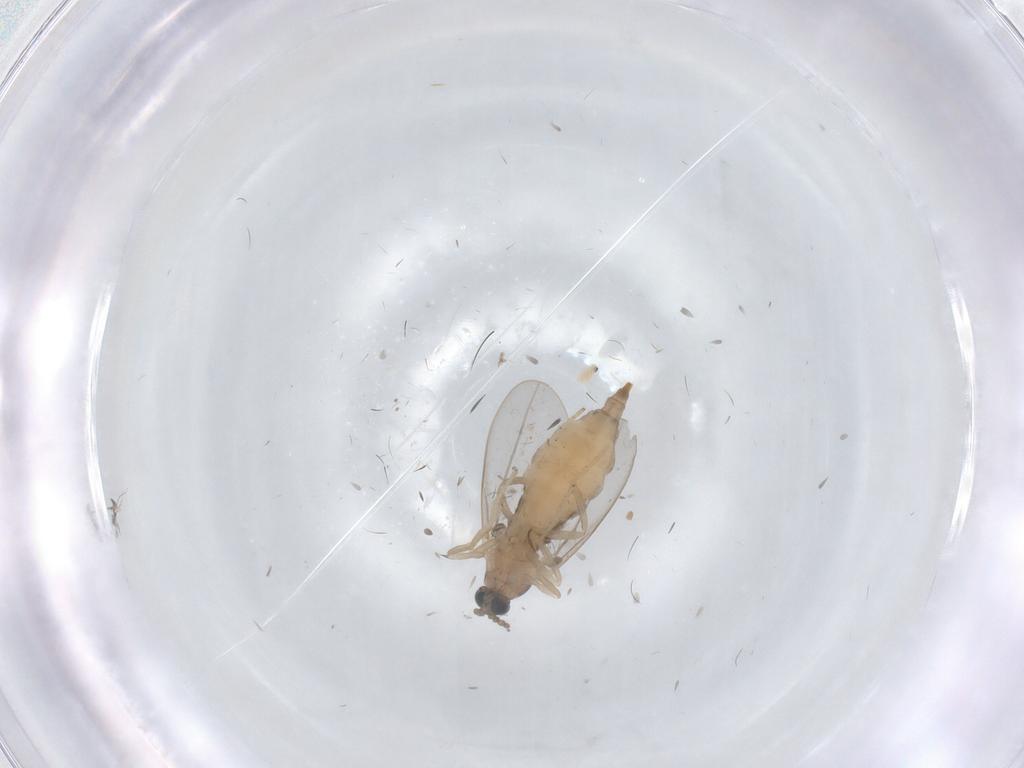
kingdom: Animalia
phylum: Arthropoda
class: Insecta
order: Diptera
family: Cecidomyiidae
